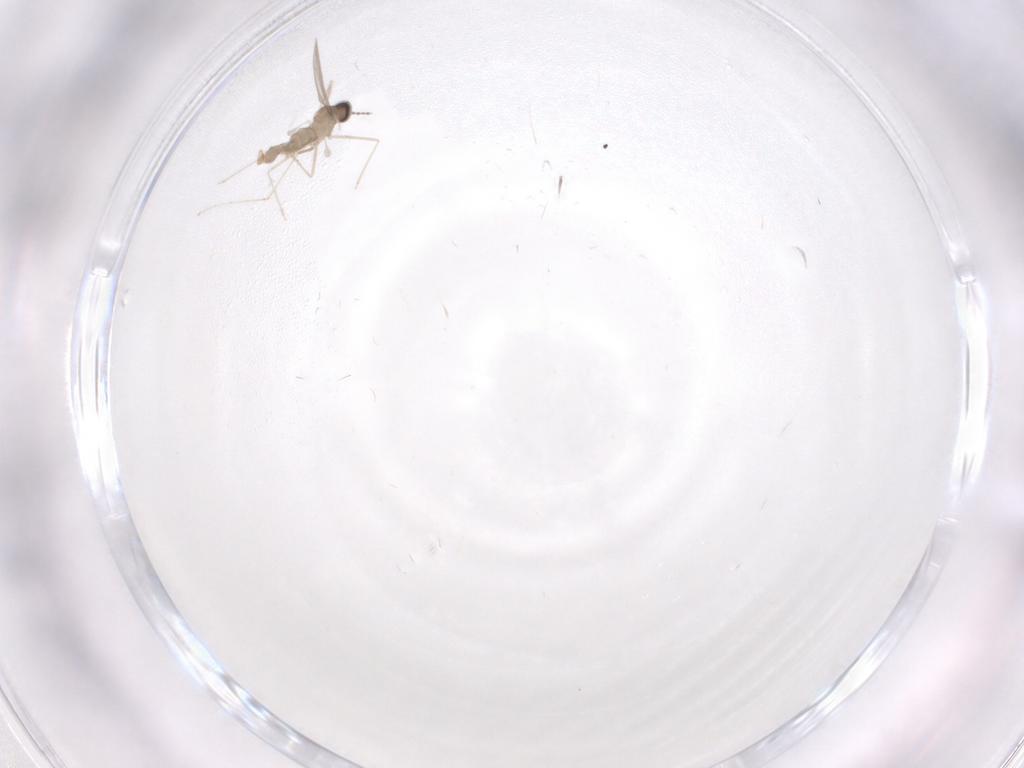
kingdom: Animalia
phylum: Arthropoda
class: Insecta
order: Diptera
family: Cecidomyiidae
